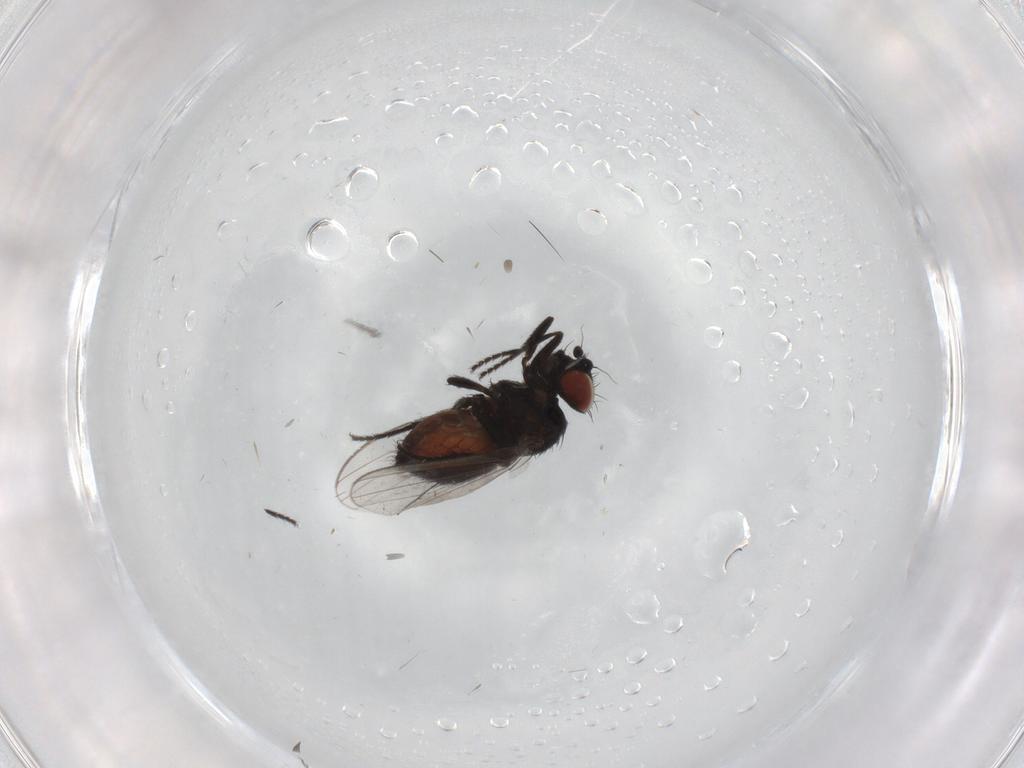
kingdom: Animalia
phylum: Arthropoda
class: Insecta
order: Diptera
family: Milichiidae
